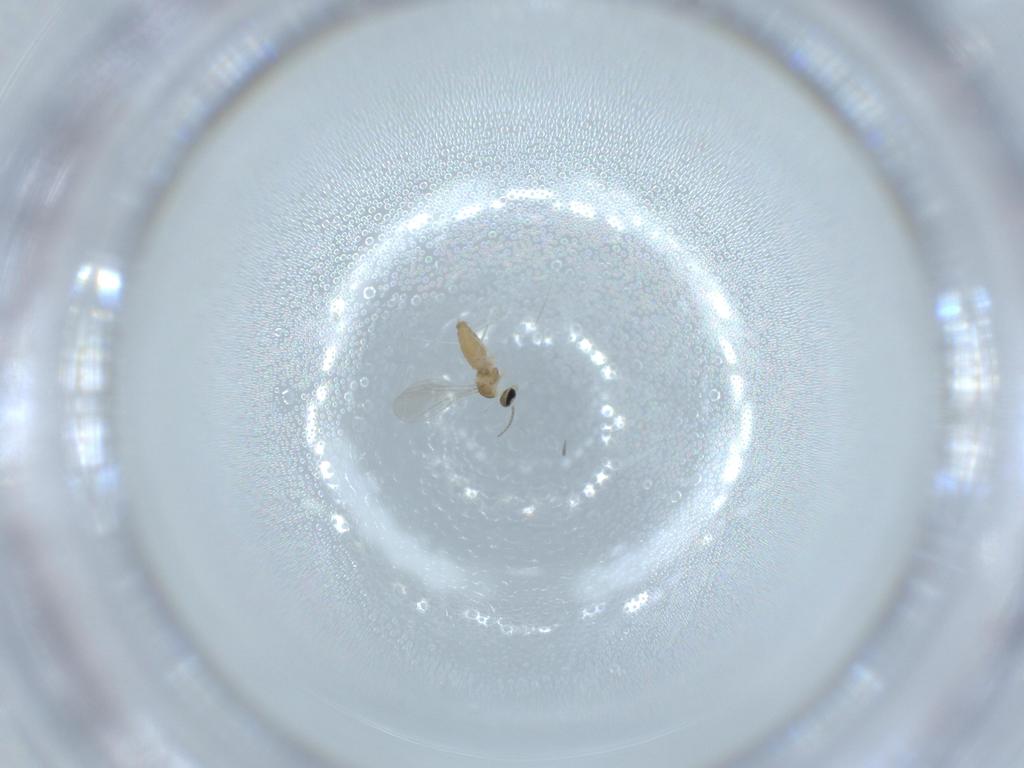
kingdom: Animalia
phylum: Arthropoda
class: Insecta
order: Diptera
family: Cecidomyiidae
